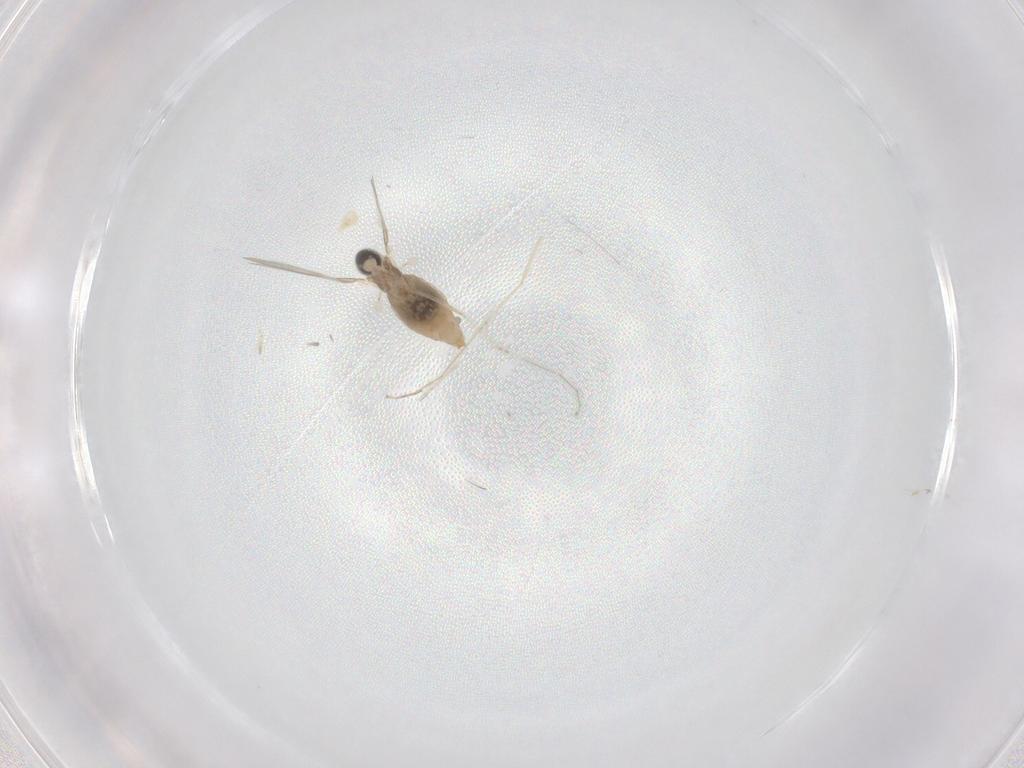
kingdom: Animalia
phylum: Arthropoda
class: Insecta
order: Diptera
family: Cecidomyiidae
